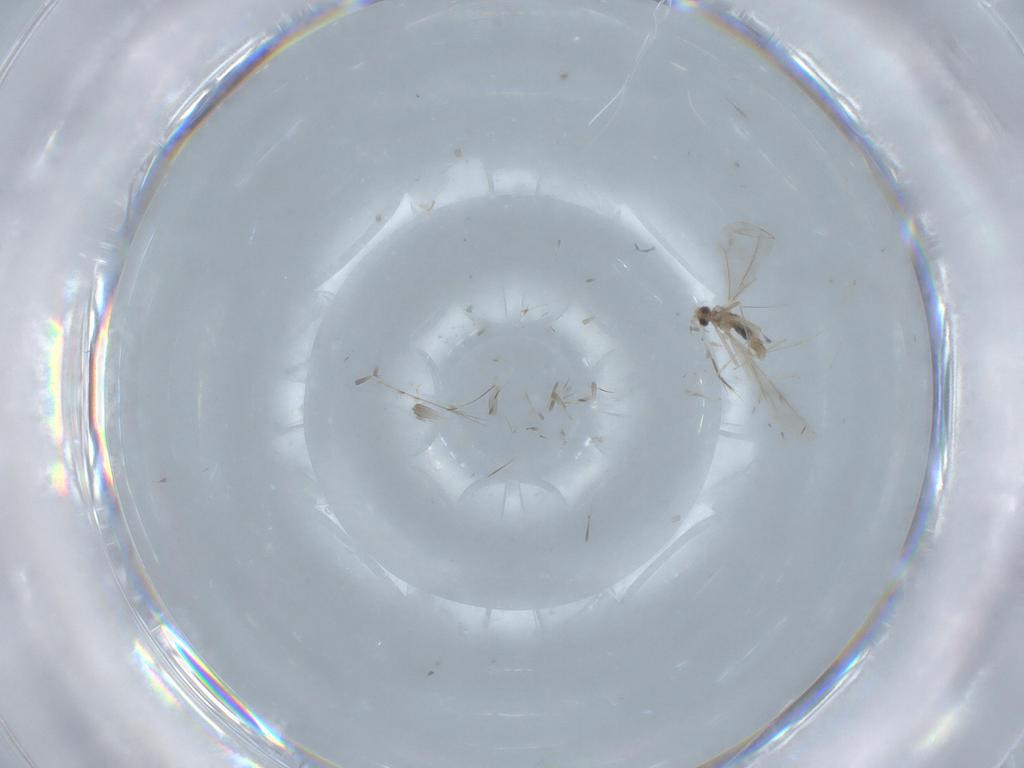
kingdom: Animalia
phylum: Arthropoda
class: Insecta
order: Diptera
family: Cecidomyiidae
